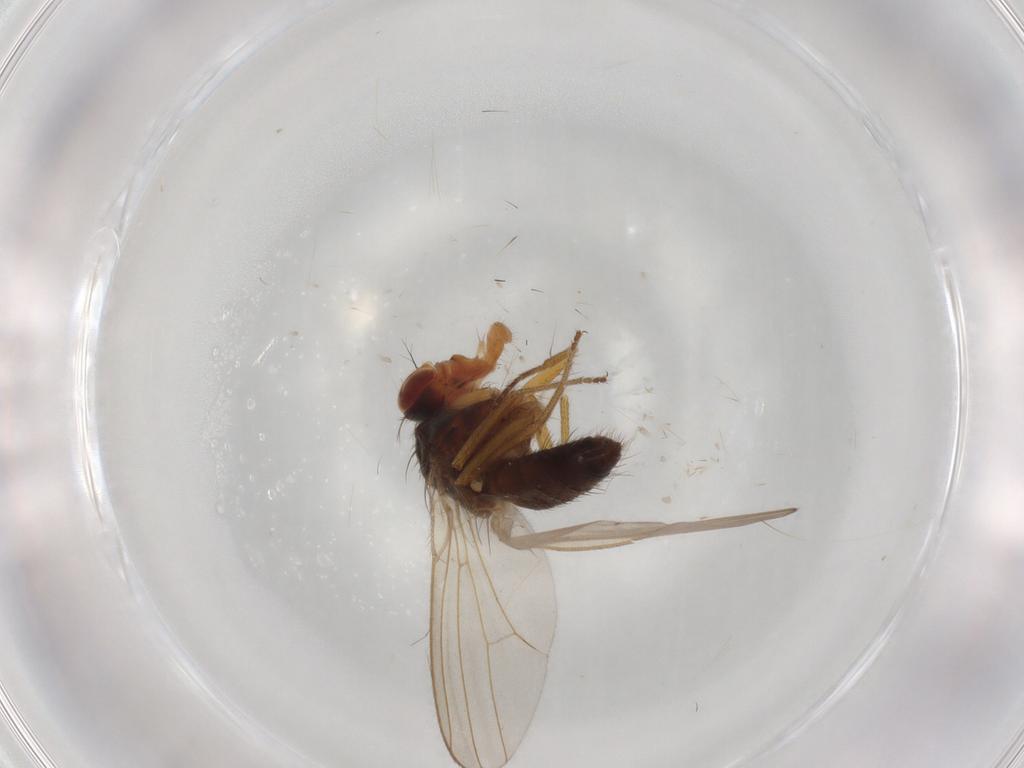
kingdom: Animalia
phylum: Arthropoda
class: Insecta
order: Diptera
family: Drosophilidae
